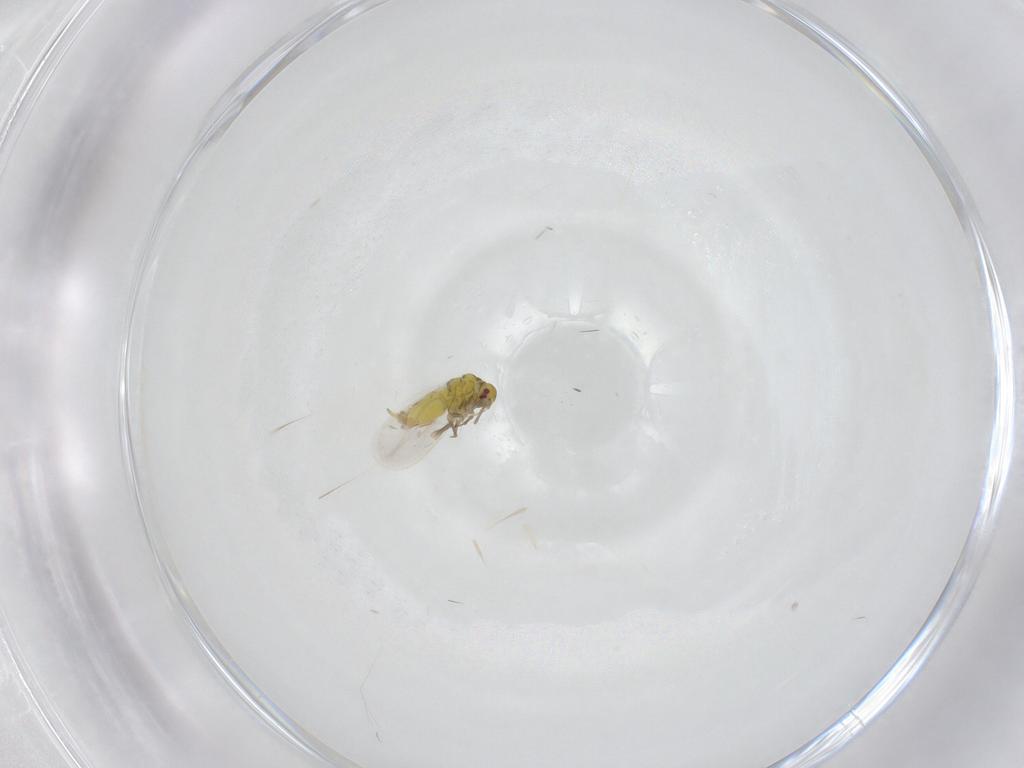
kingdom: Animalia
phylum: Arthropoda
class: Insecta
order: Hemiptera
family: Aleyrodidae
